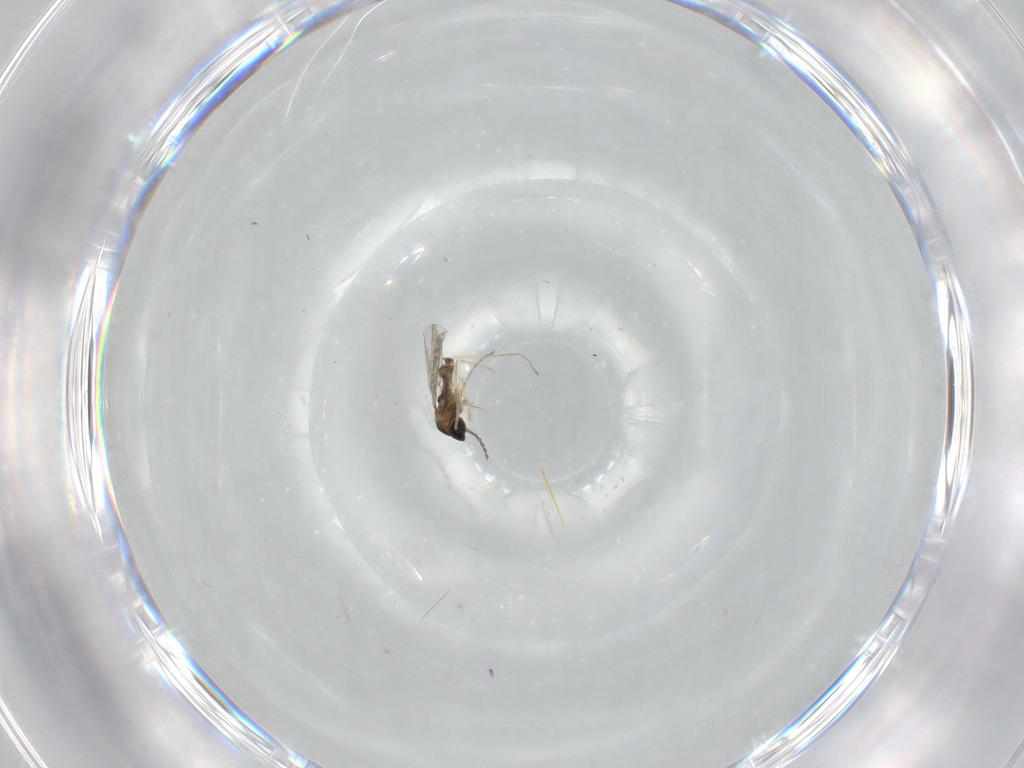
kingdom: Animalia
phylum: Arthropoda
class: Insecta
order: Diptera
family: Cecidomyiidae
